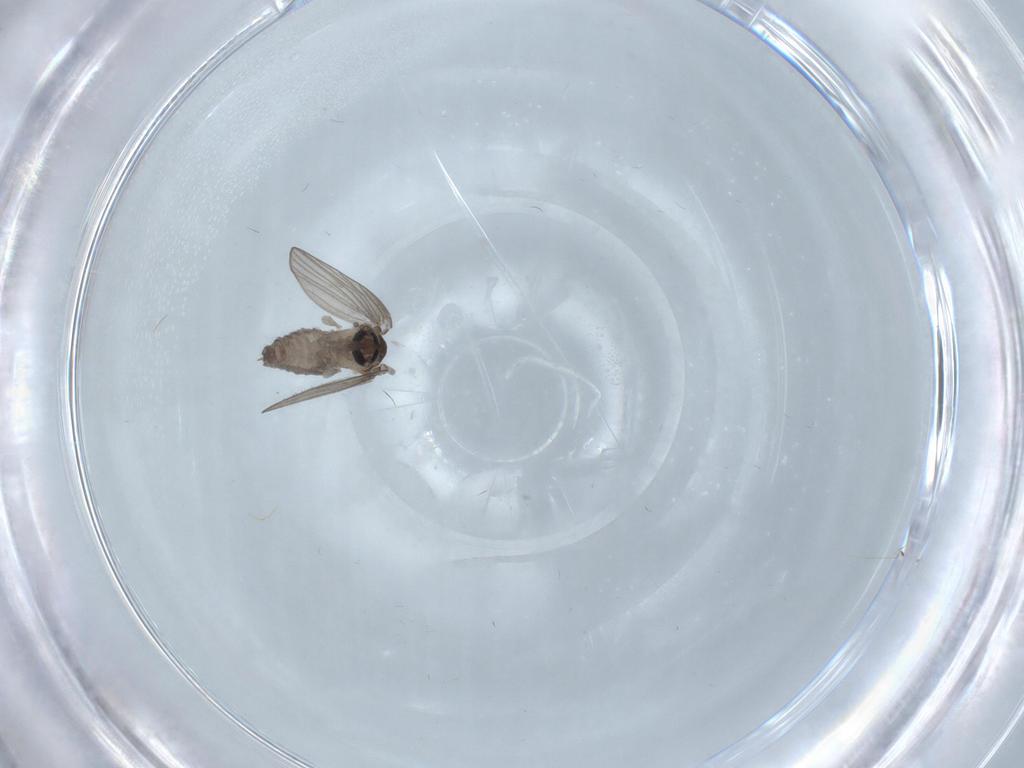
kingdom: Animalia
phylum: Arthropoda
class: Insecta
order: Diptera
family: Psychodidae
